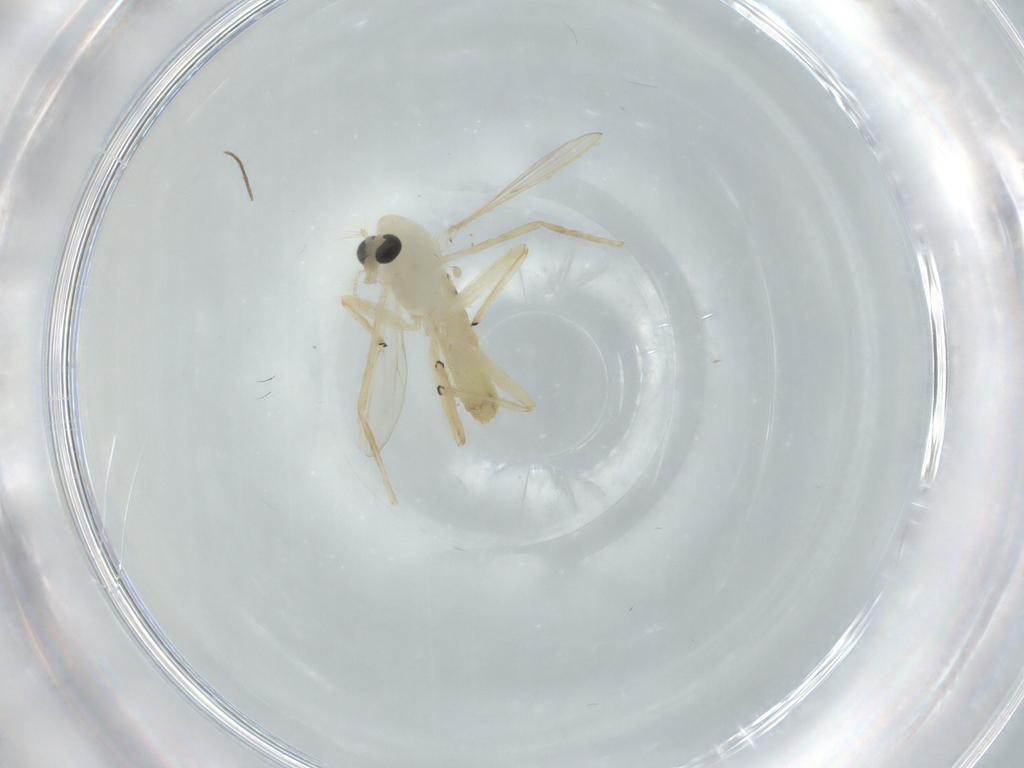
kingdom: Animalia
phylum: Arthropoda
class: Insecta
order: Diptera
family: Chironomidae
